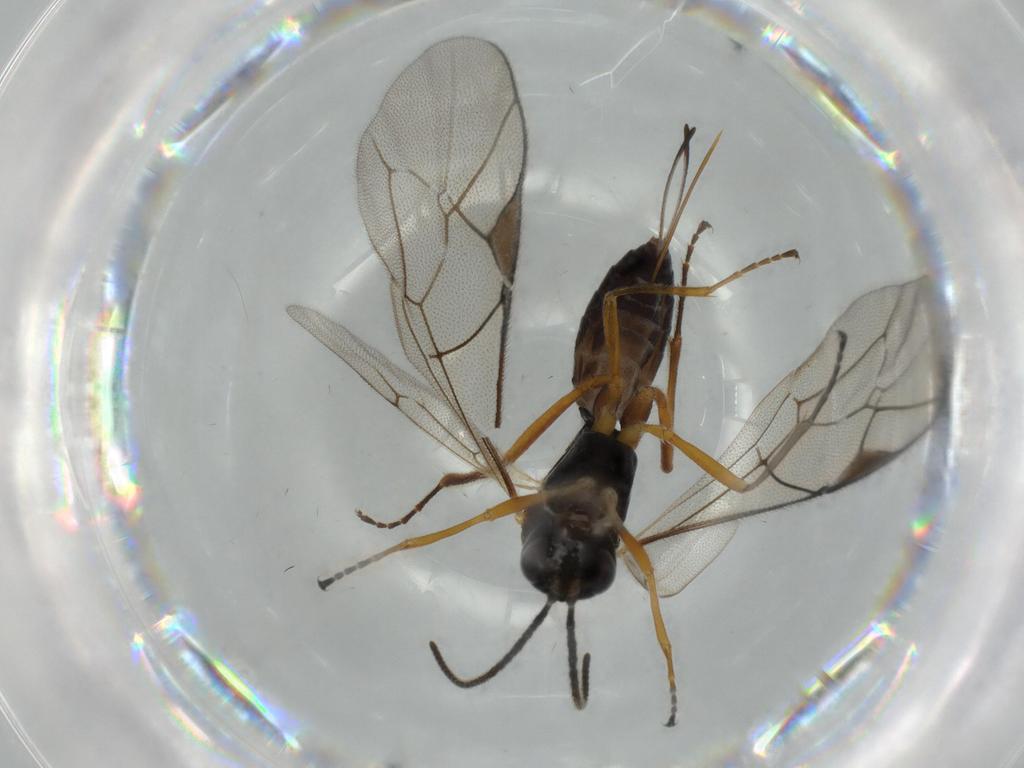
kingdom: Animalia
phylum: Arthropoda
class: Insecta
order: Hymenoptera
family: Ichneumonidae
